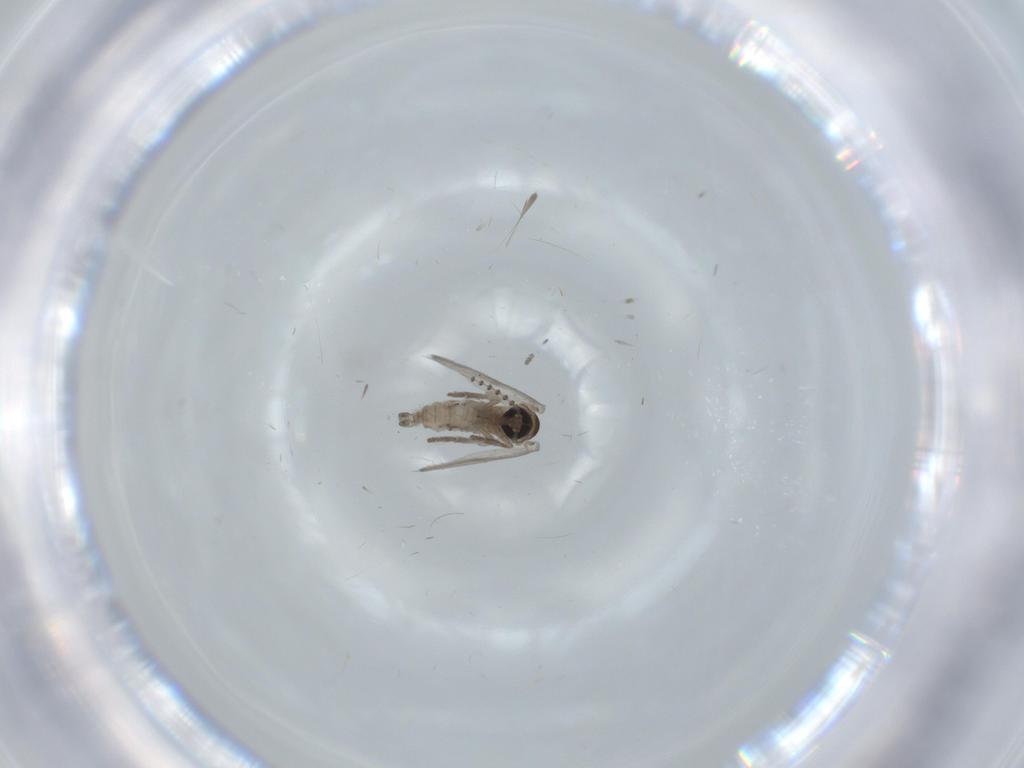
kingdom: Animalia
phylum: Arthropoda
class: Insecta
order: Diptera
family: Psychodidae
